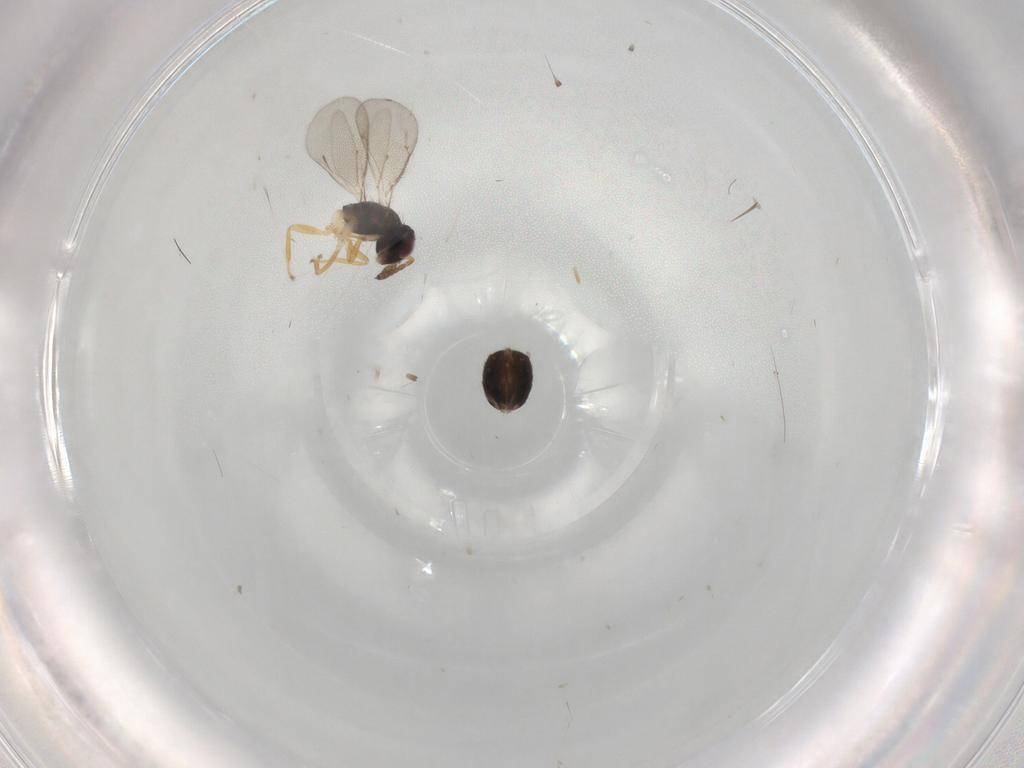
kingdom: Animalia
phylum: Arthropoda
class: Insecta
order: Hymenoptera
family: Eulophidae
